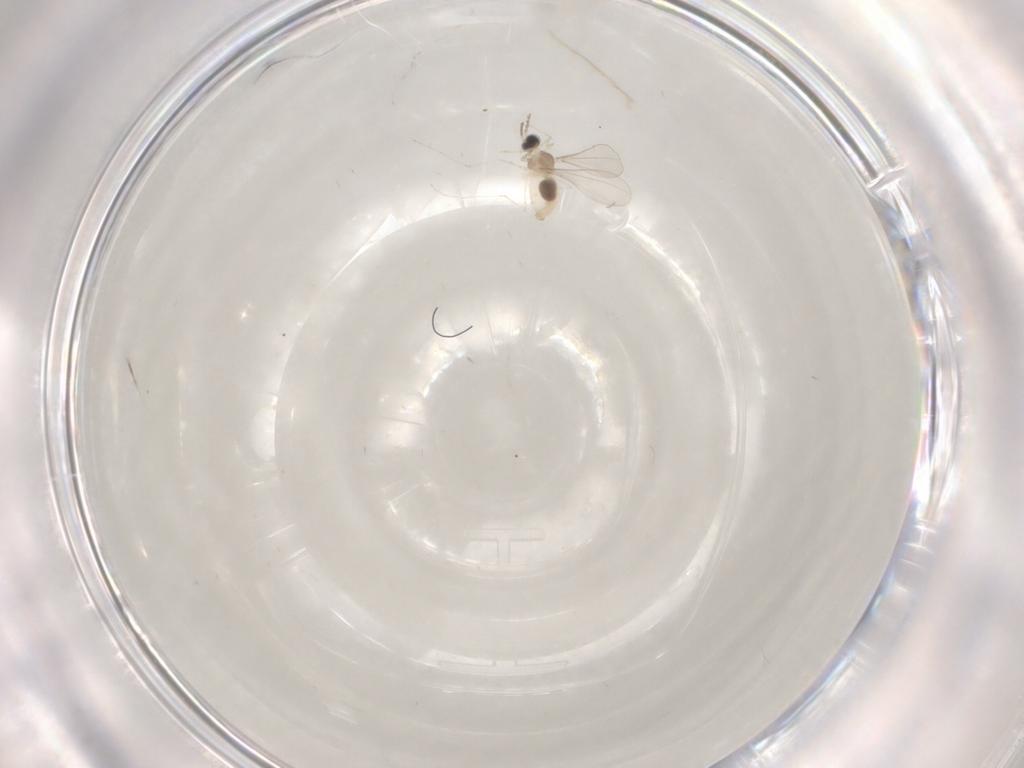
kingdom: Animalia
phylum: Arthropoda
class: Insecta
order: Diptera
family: Cecidomyiidae
